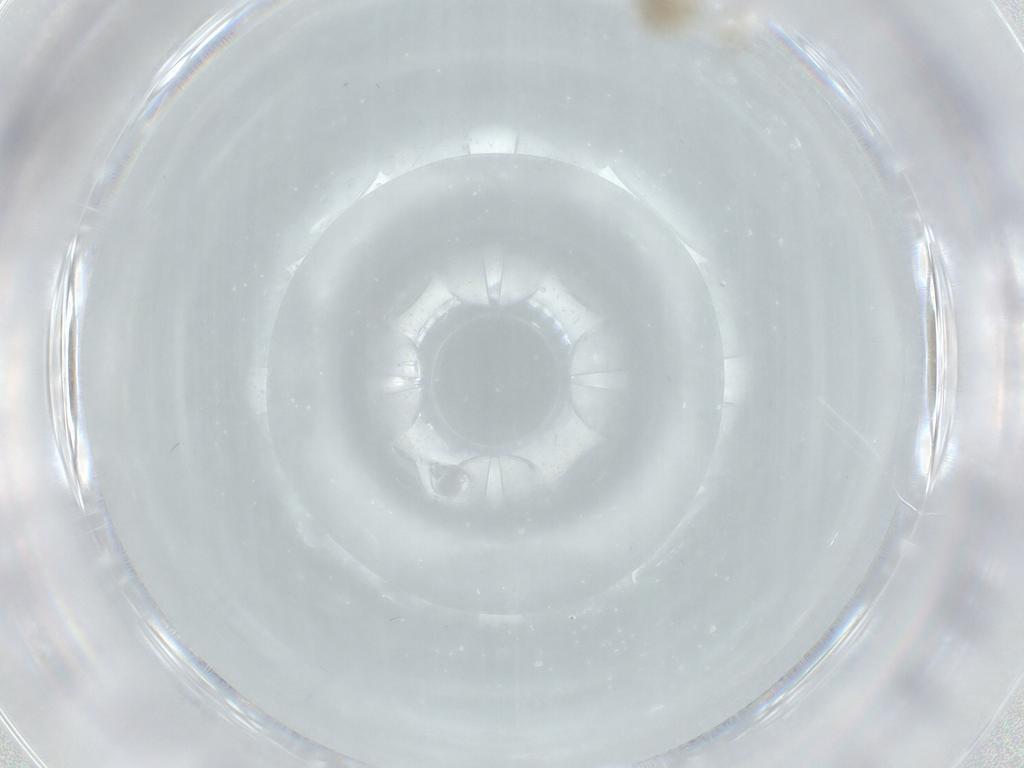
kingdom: Animalia
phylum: Arthropoda
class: Insecta
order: Diptera
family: Chironomidae
